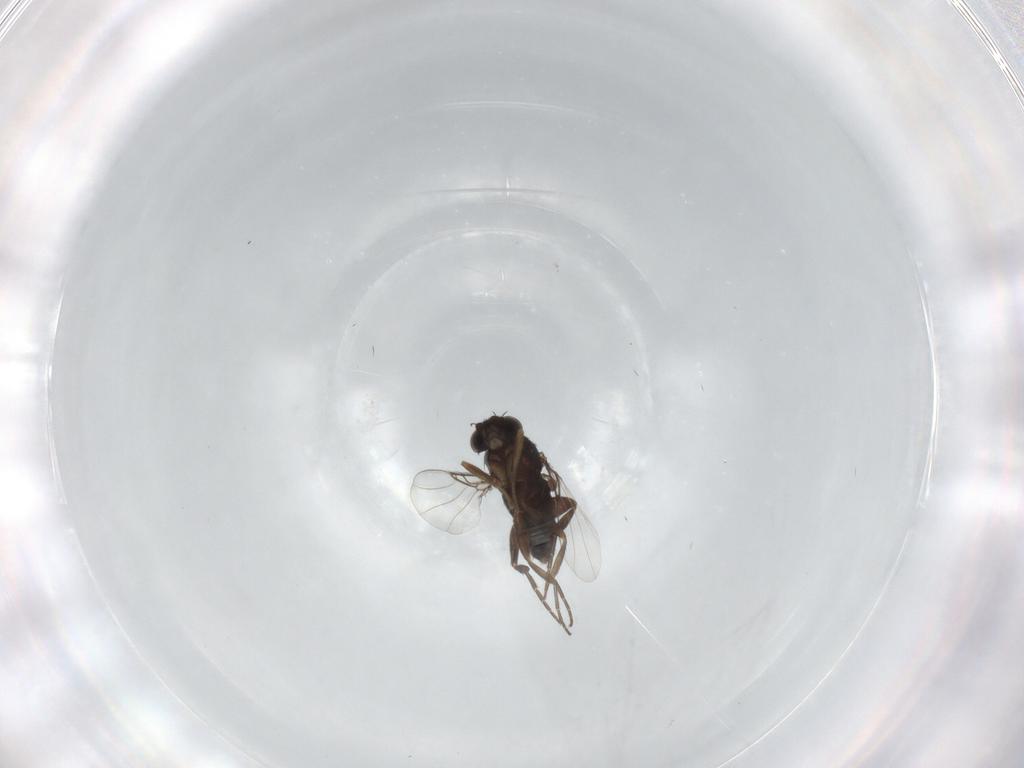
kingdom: Animalia
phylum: Arthropoda
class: Insecta
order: Diptera
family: Phoridae
